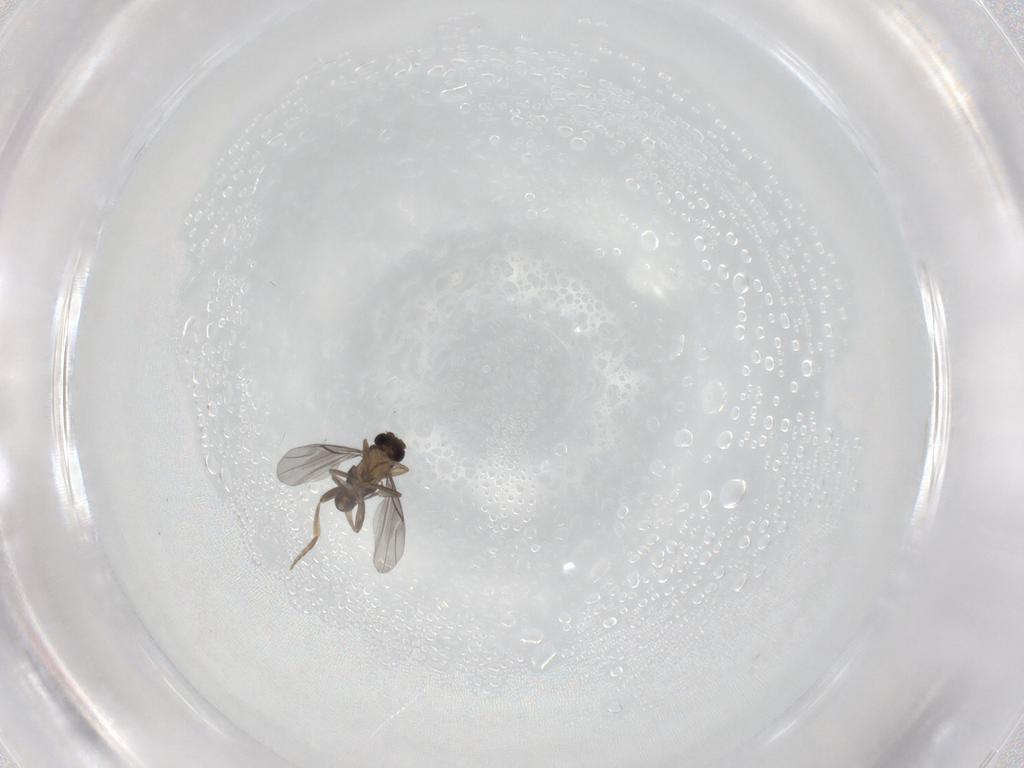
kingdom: Animalia
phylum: Arthropoda
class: Insecta
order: Diptera
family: Phoridae
